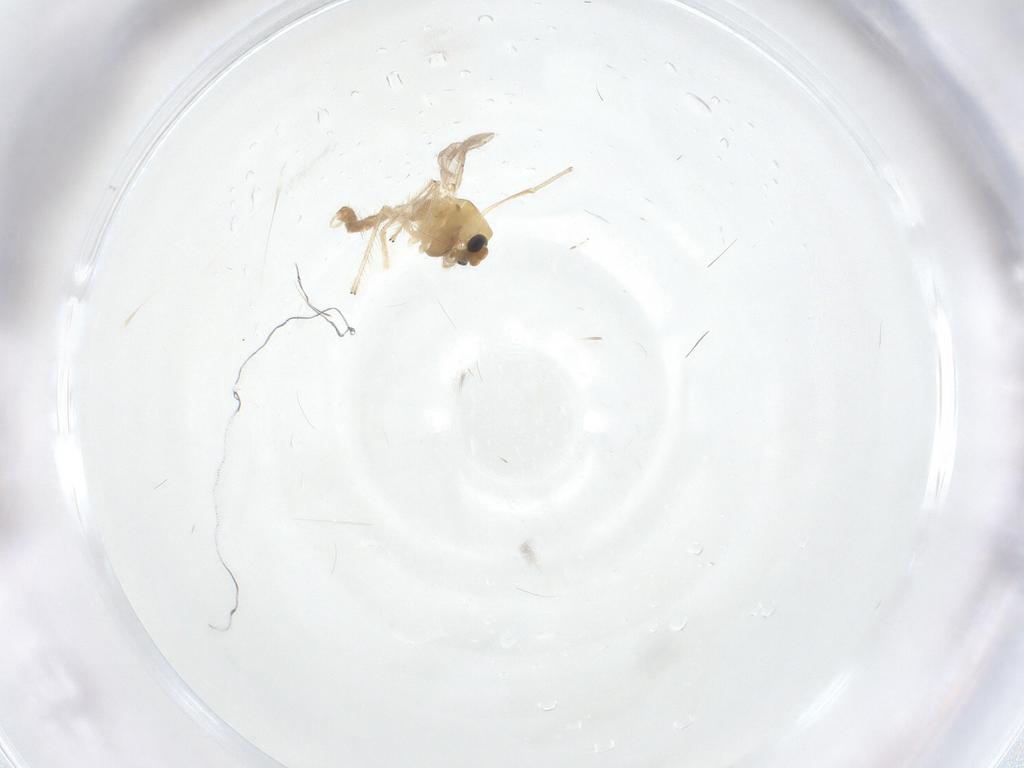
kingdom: Animalia
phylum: Arthropoda
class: Insecta
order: Diptera
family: Chironomidae
